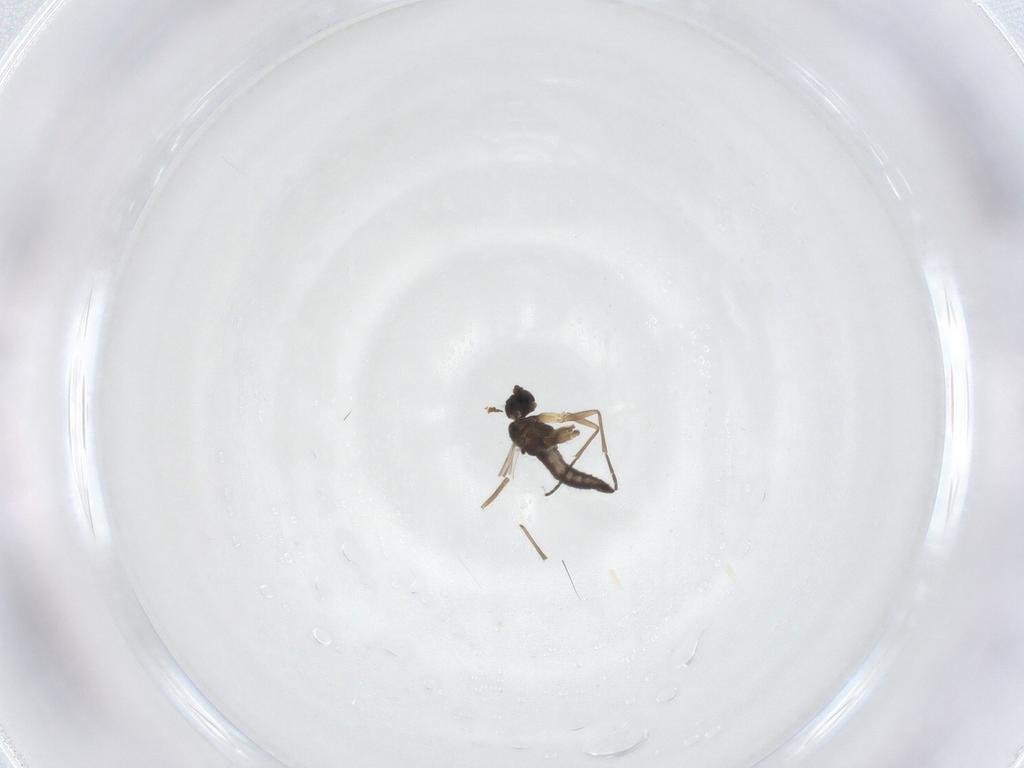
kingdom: Animalia
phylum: Arthropoda
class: Insecta
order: Diptera
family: Sciaridae
